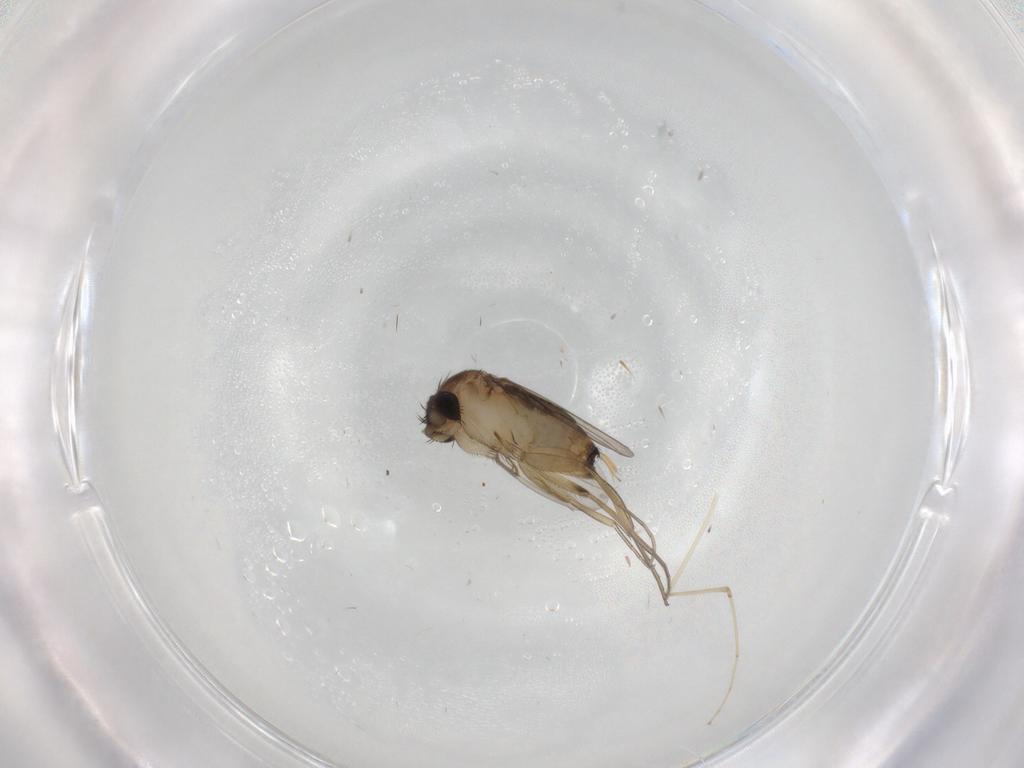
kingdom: Animalia
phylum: Arthropoda
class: Insecta
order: Diptera
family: Phoridae
